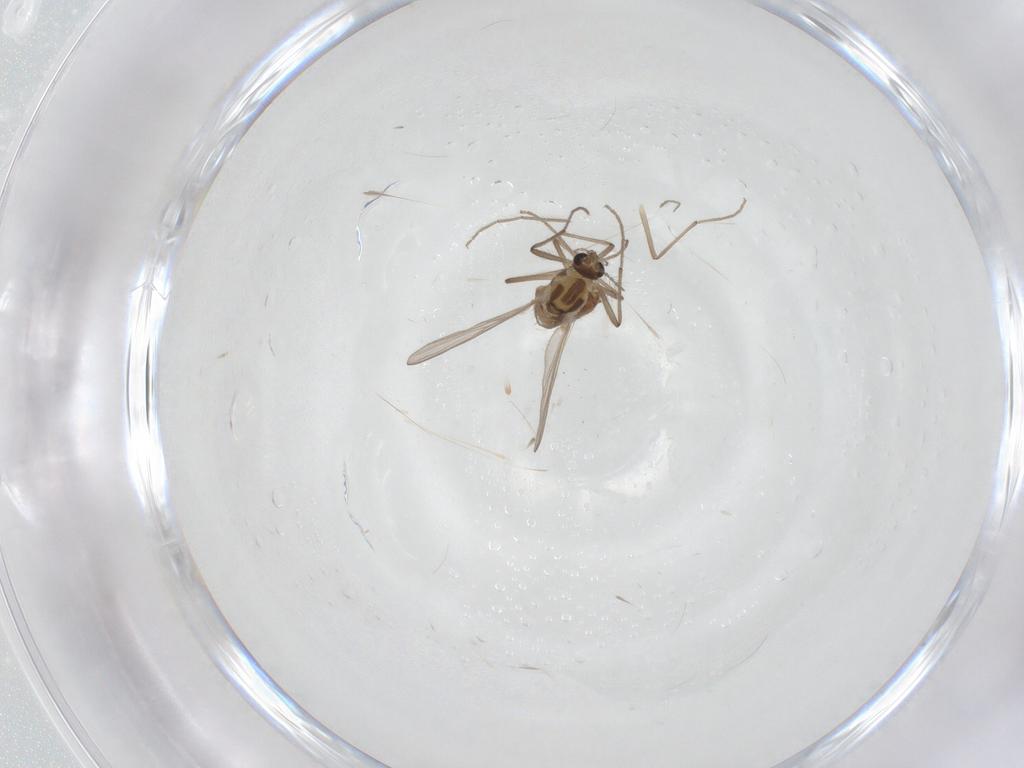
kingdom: Animalia
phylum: Arthropoda
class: Insecta
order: Diptera
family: Chironomidae
